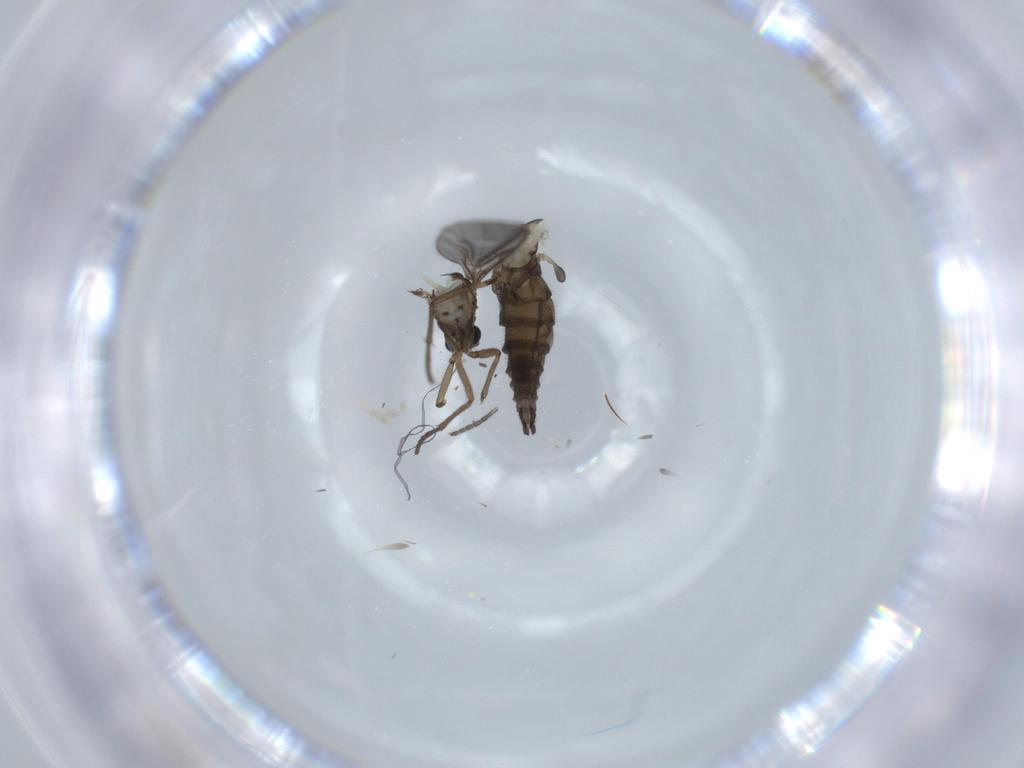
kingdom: Animalia
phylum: Arthropoda
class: Insecta
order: Diptera
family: Sciaridae
